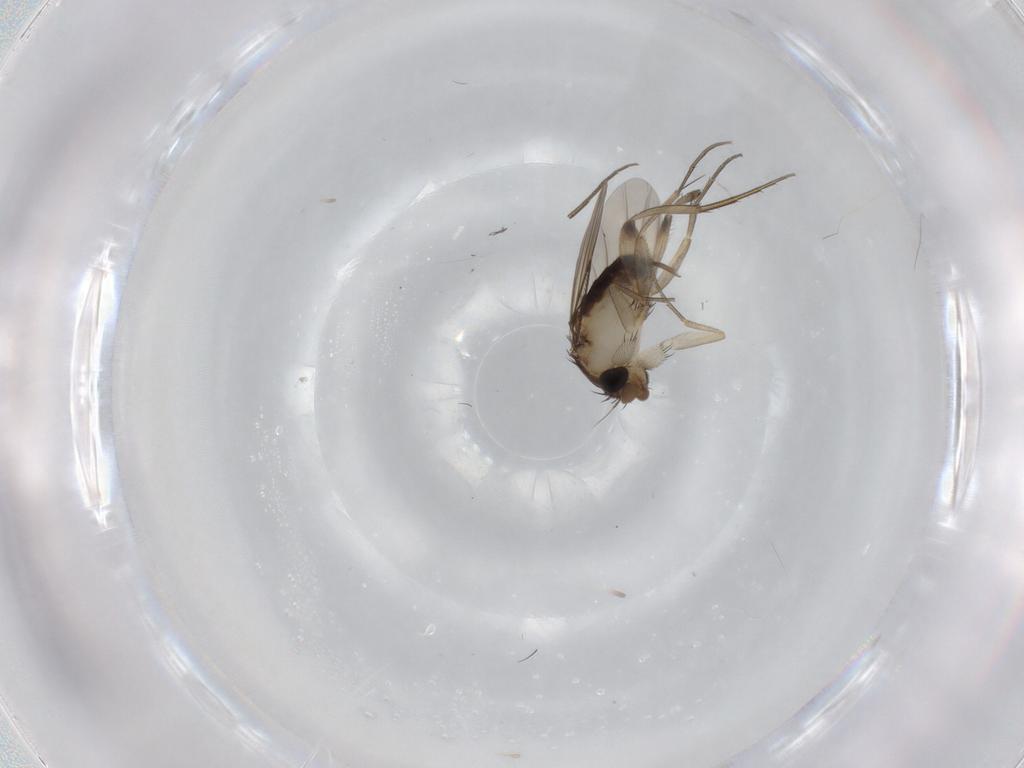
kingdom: Animalia
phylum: Arthropoda
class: Insecta
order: Diptera
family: Phoridae
